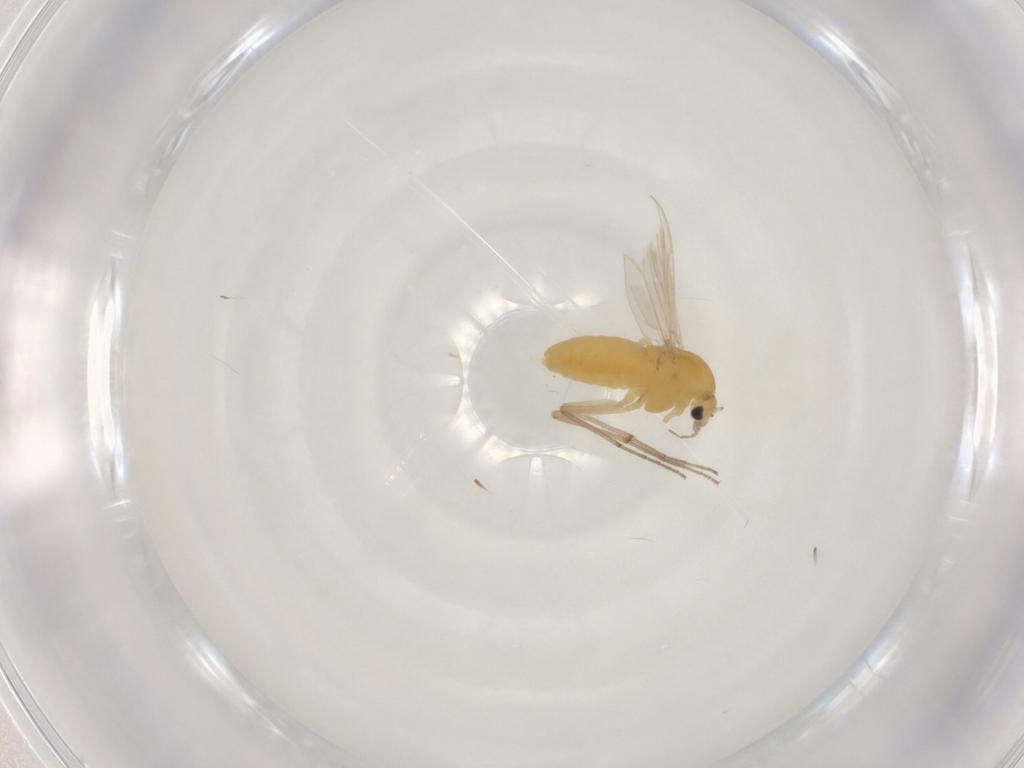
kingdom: Animalia
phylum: Arthropoda
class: Insecta
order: Diptera
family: Chironomidae
